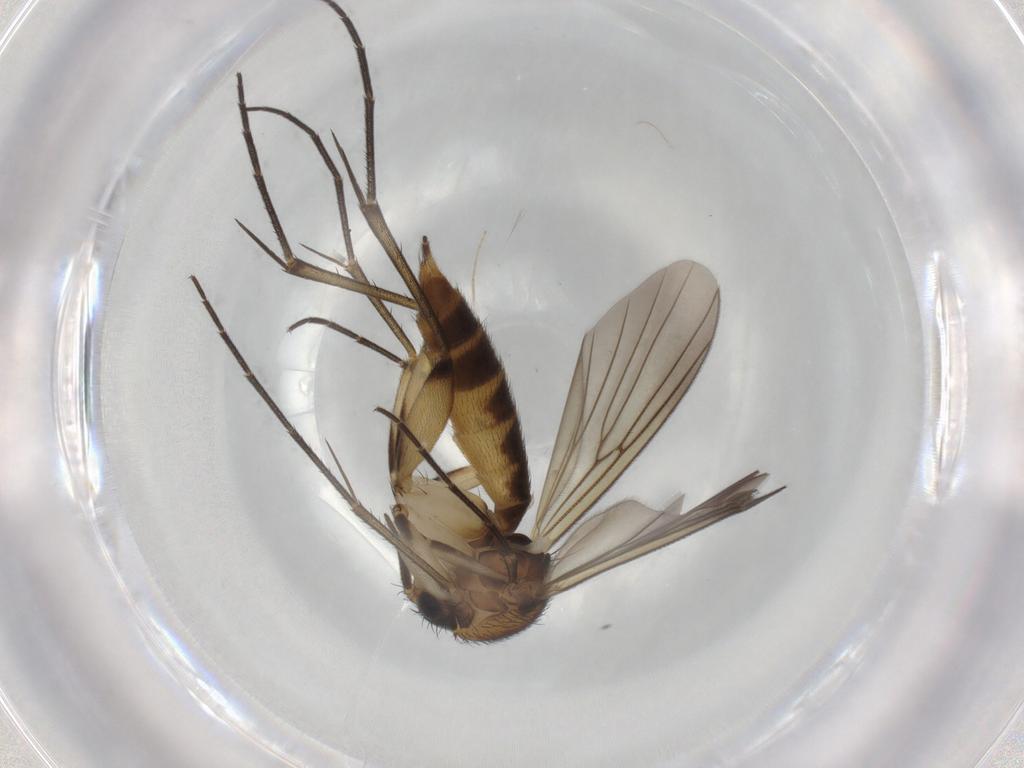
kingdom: Animalia
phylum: Arthropoda
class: Insecta
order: Diptera
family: Mycetophilidae
